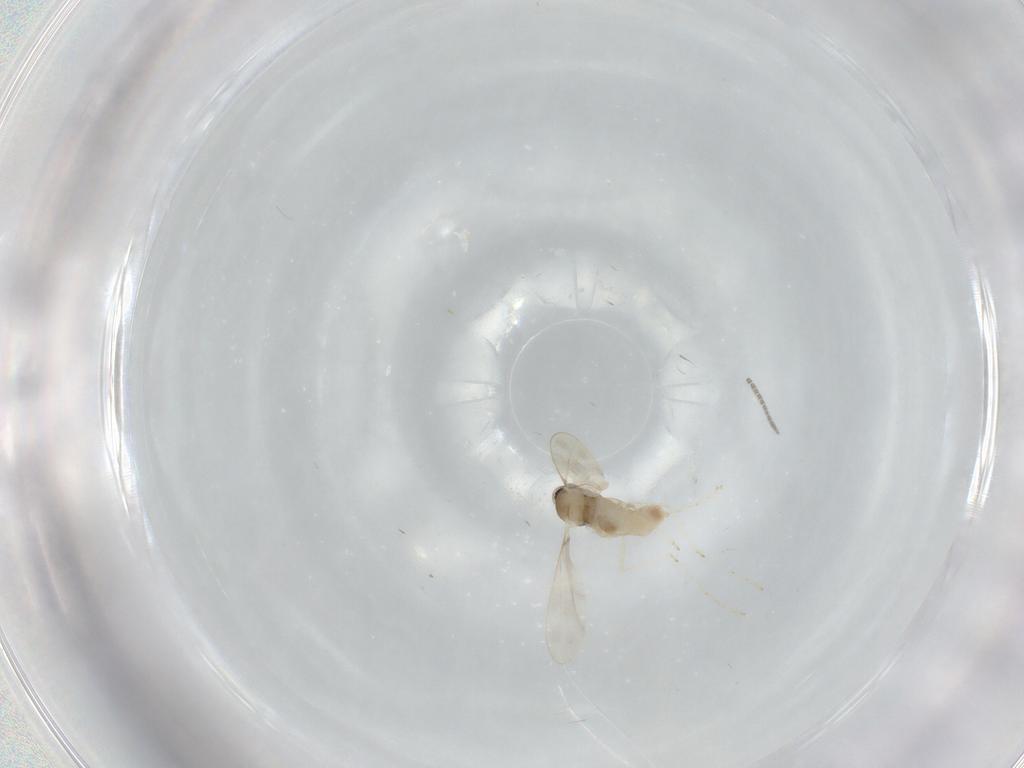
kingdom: Animalia
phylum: Arthropoda
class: Insecta
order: Diptera
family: Cecidomyiidae
